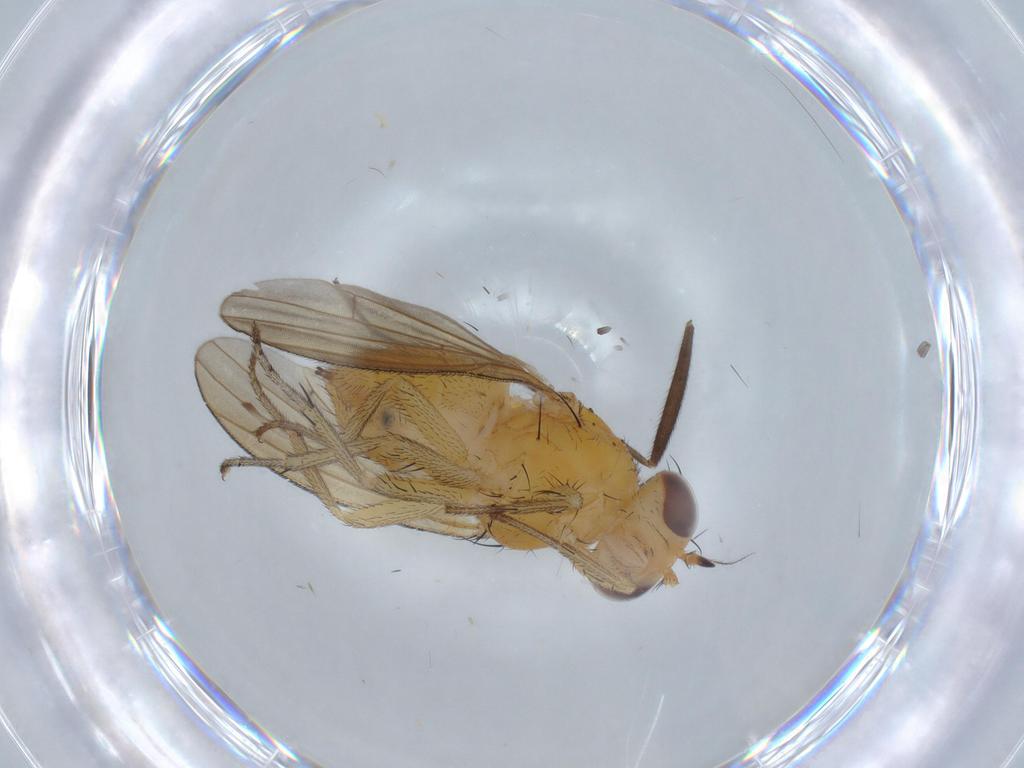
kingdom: Animalia
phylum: Arthropoda
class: Insecta
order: Diptera
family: Lauxaniidae
